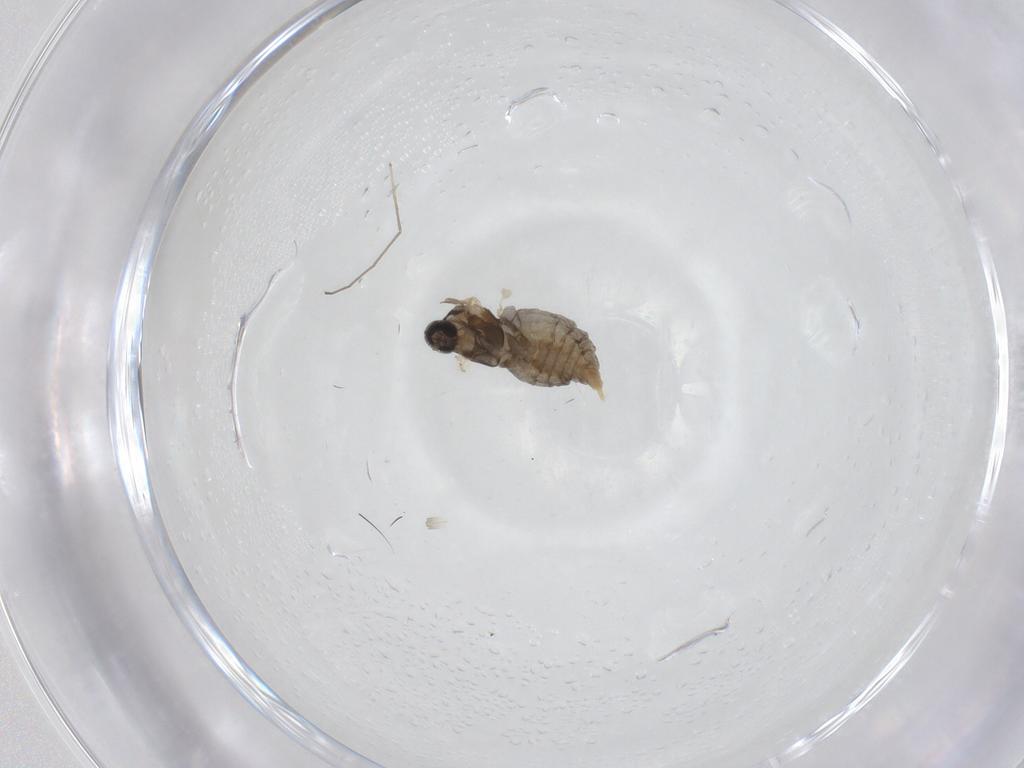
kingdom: Animalia
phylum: Arthropoda
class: Insecta
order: Diptera
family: Cecidomyiidae
